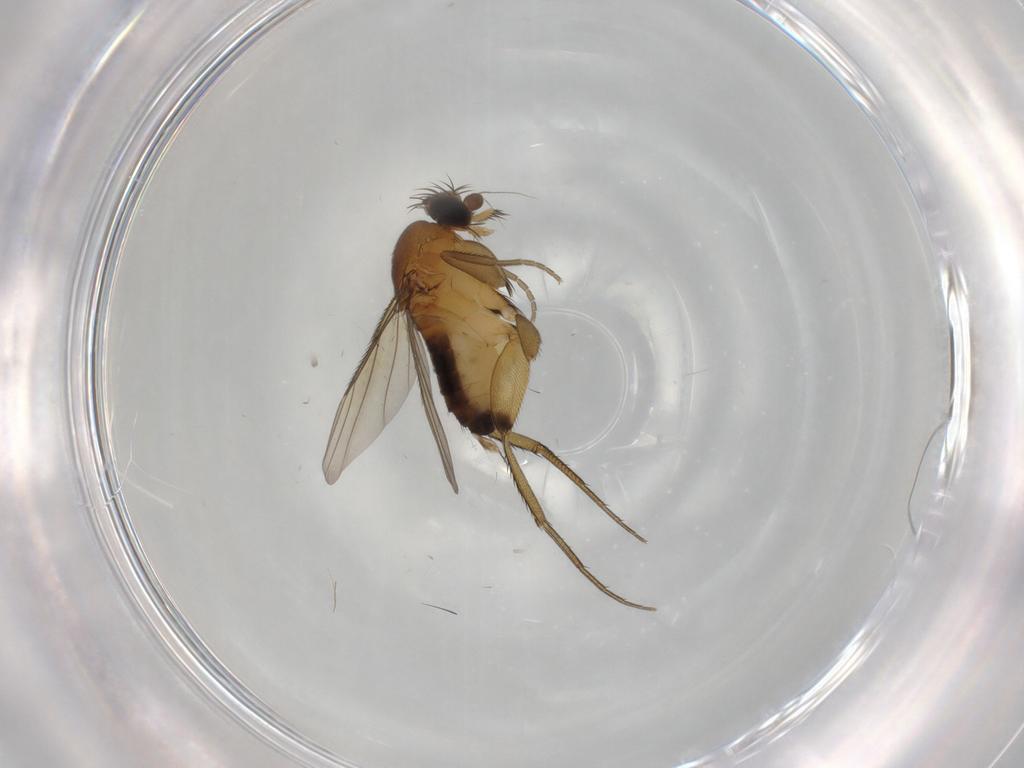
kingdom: Animalia
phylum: Arthropoda
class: Insecta
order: Diptera
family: Phoridae
